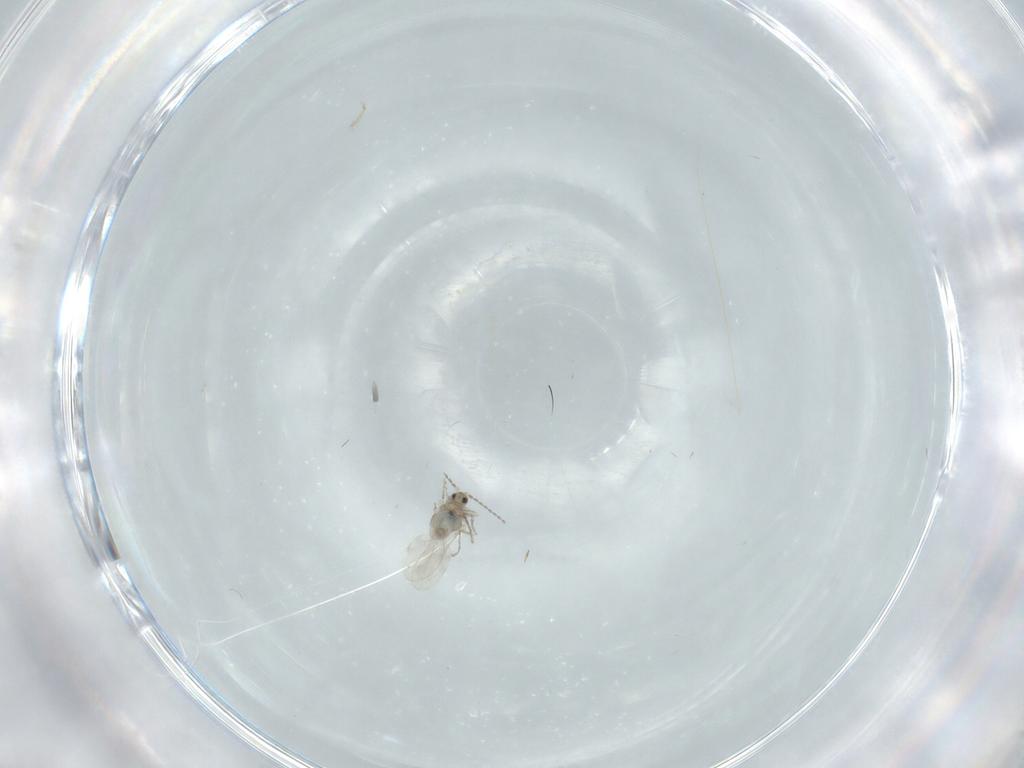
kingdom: Animalia
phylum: Arthropoda
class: Insecta
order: Diptera
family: Cecidomyiidae
